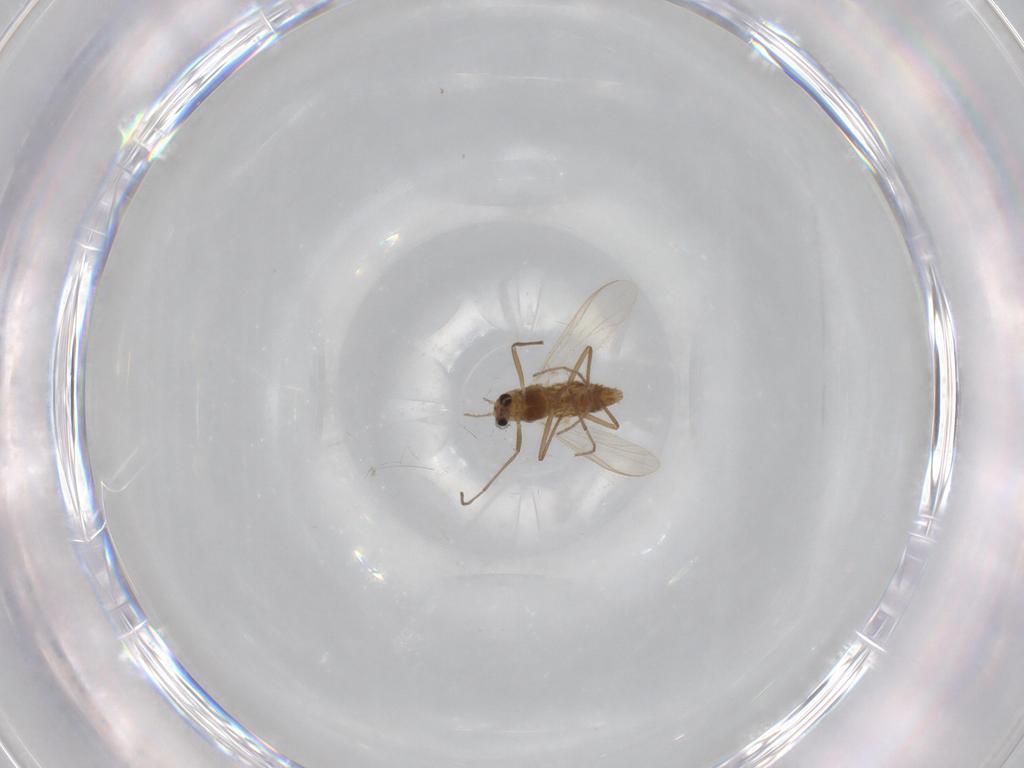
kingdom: Animalia
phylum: Arthropoda
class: Insecta
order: Diptera
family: Chironomidae
